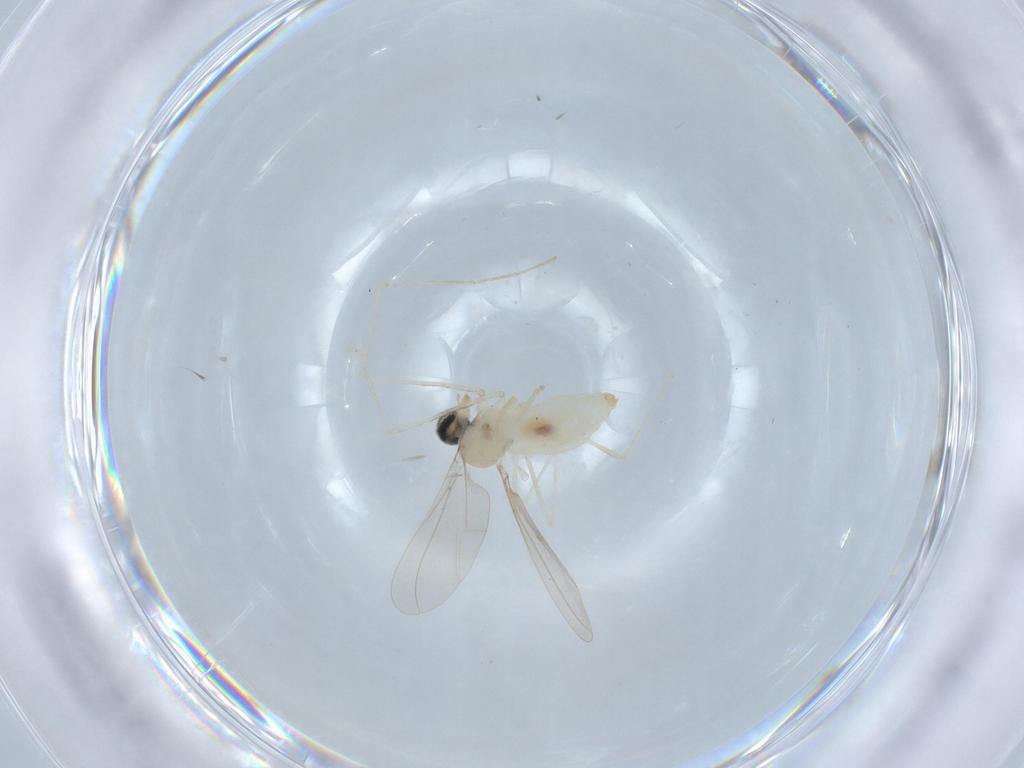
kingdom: Animalia
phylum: Arthropoda
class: Insecta
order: Diptera
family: Cecidomyiidae
